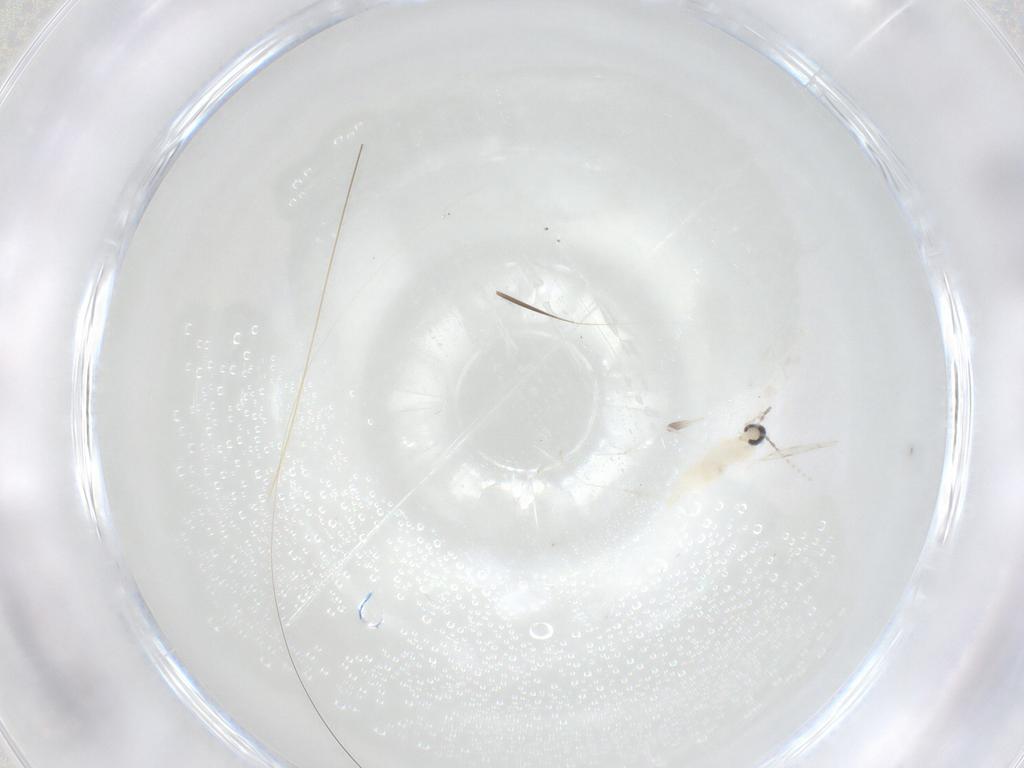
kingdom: Animalia
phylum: Arthropoda
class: Insecta
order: Diptera
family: Cecidomyiidae
